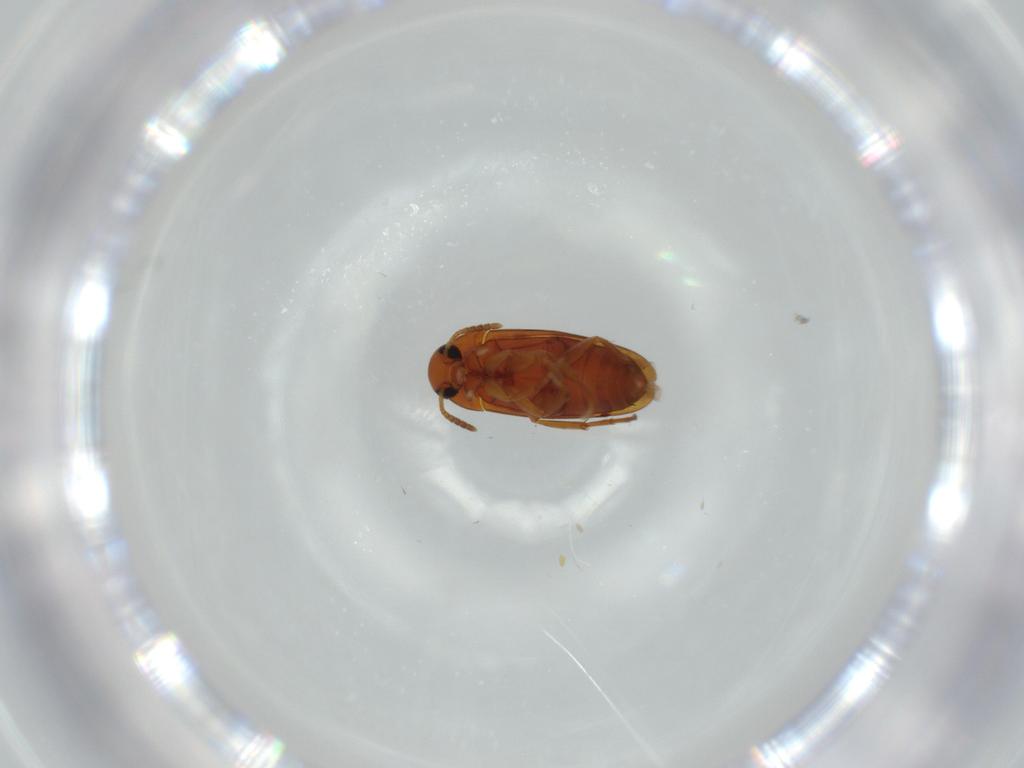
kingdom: Animalia
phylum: Arthropoda
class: Insecta
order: Coleoptera
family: Scraptiidae
